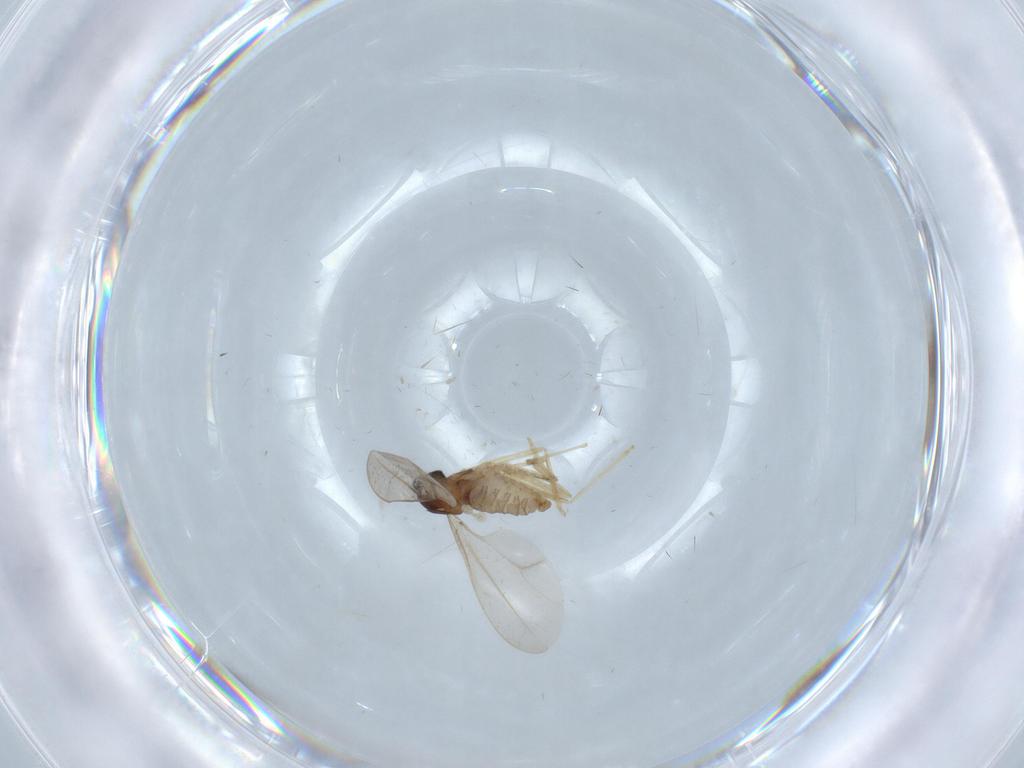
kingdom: Animalia
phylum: Arthropoda
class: Insecta
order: Diptera
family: Cecidomyiidae
